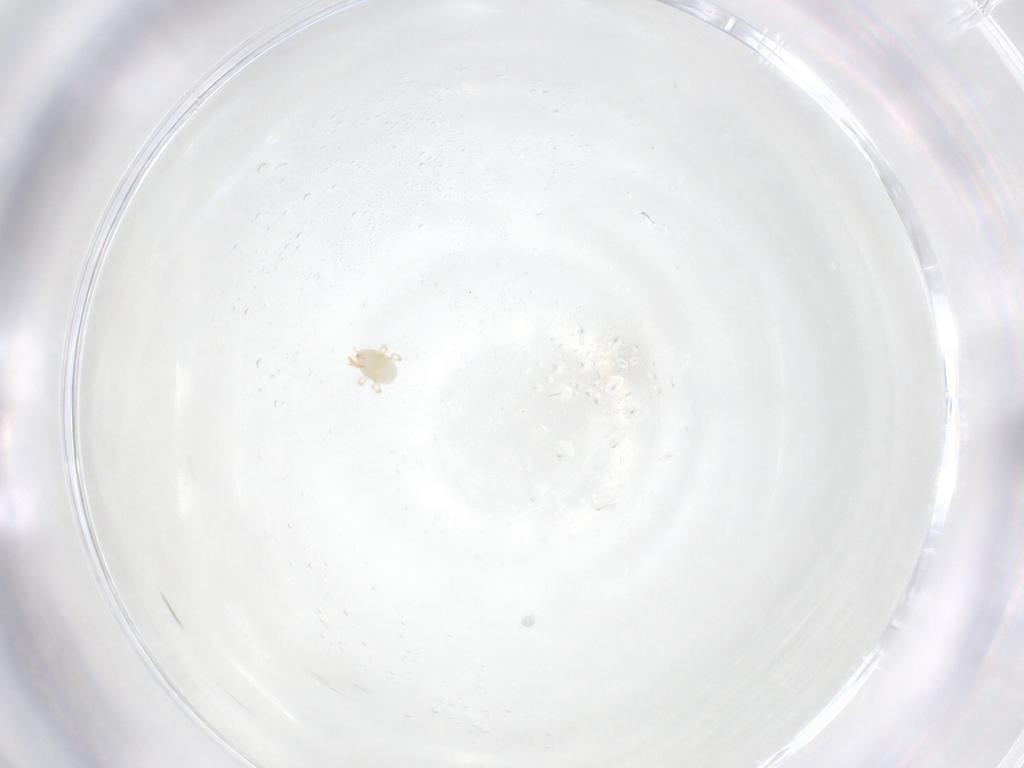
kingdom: Animalia
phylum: Arthropoda
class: Arachnida
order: Mesostigmata
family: Phytoseiidae
